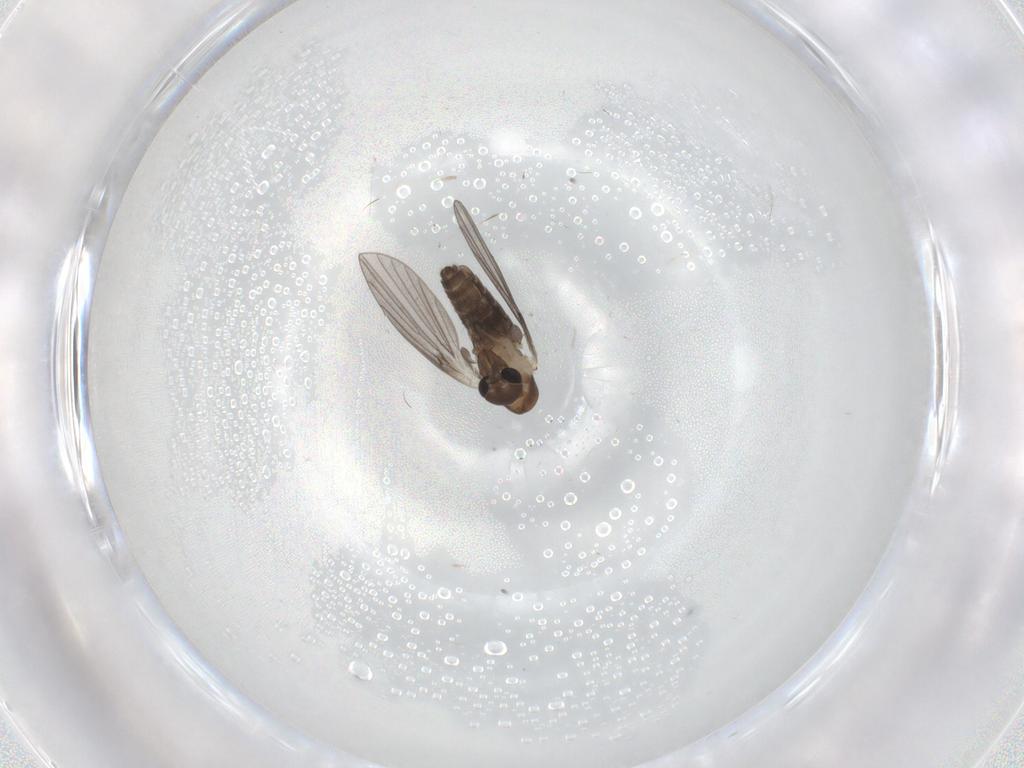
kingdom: Animalia
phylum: Arthropoda
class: Insecta
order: Diptera
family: Psychodidae
